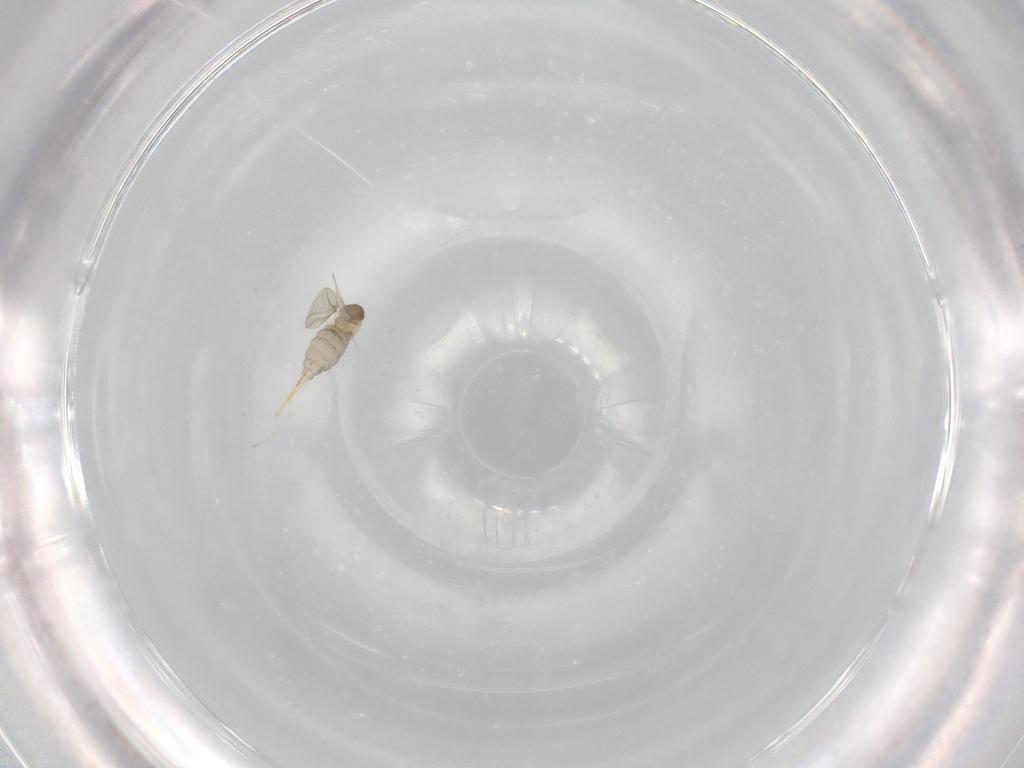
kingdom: Animalia
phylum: Arthropoda
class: Insecta
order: Diptera
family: Cecidomyiidae
